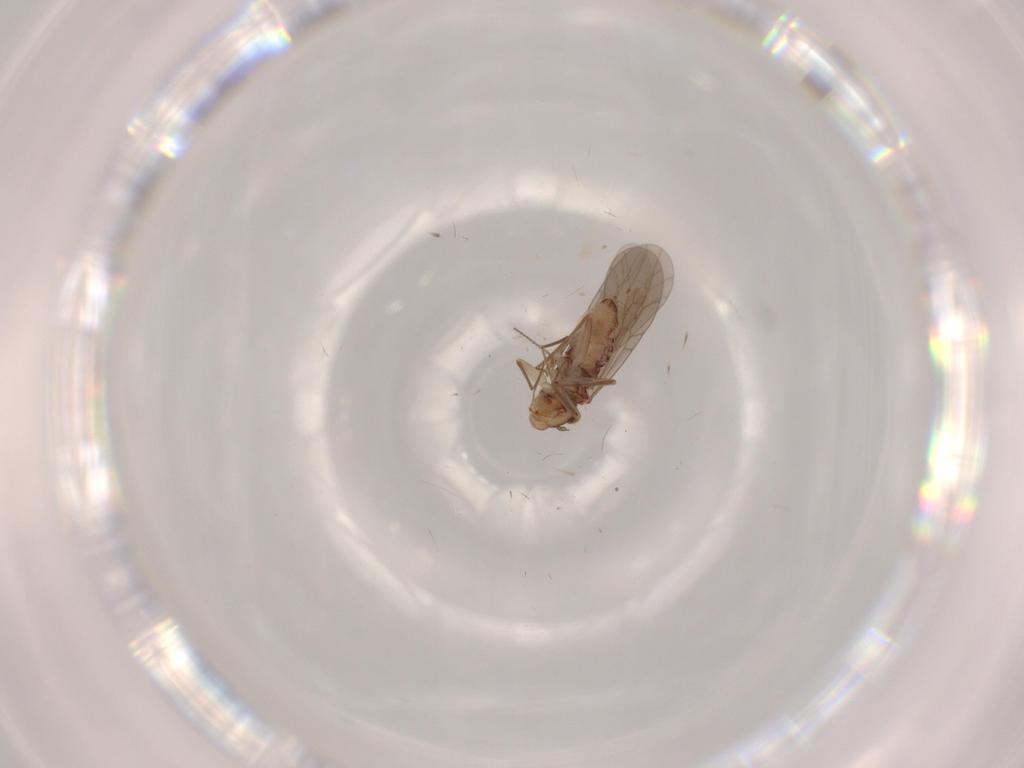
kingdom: Animalia
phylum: Arthropoda
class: Insecta
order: Psocodea
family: Lepidopsocidae
